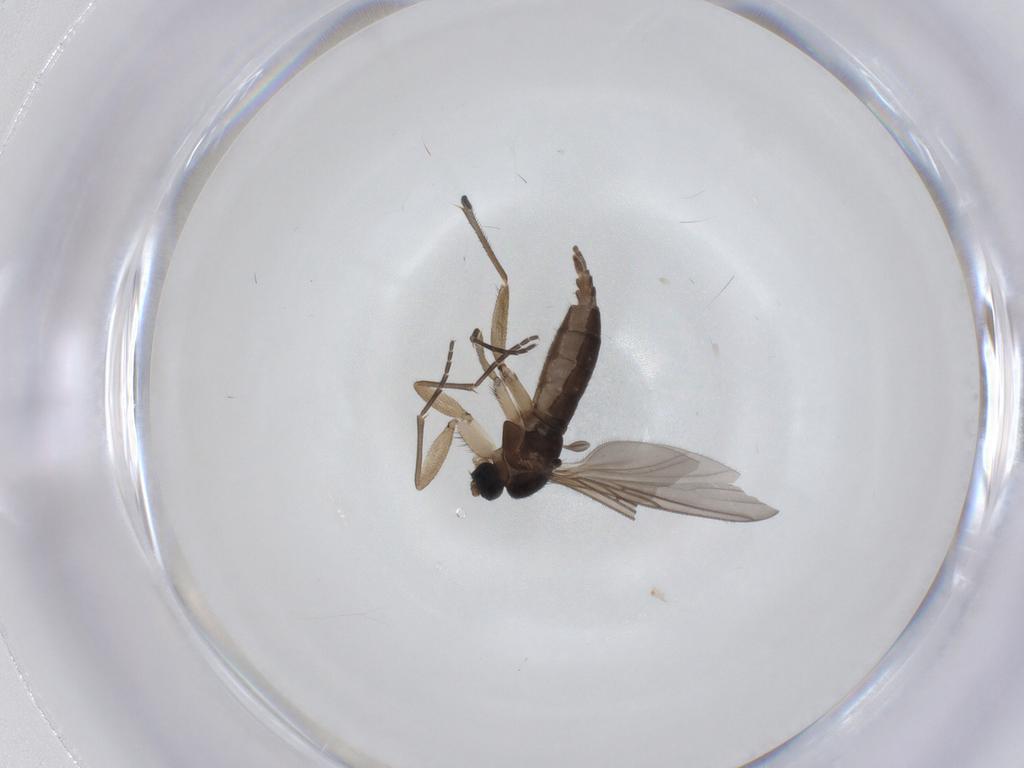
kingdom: Animalia
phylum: Arthropoda
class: Insecta
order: Diptera
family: Sciaridae
